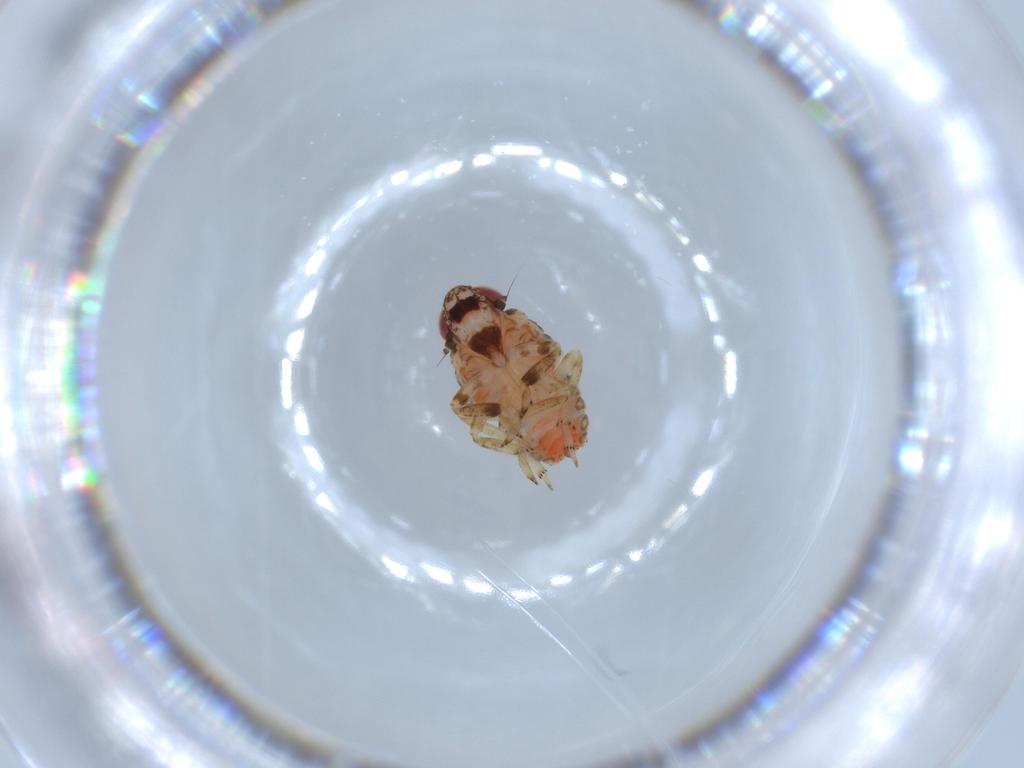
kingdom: Animalia
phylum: Arthropoda
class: Insecta
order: Hemiptera
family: Issidae
